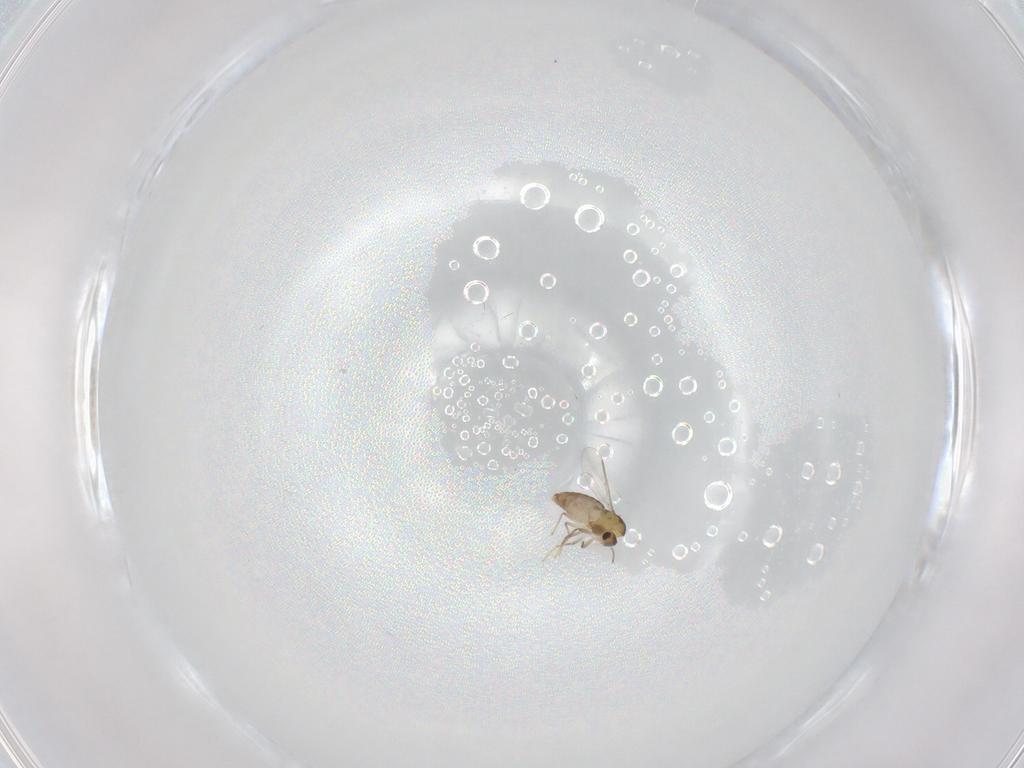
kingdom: Animalia
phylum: Arthropoda
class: Insecta
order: Diptera
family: Chironomidae
